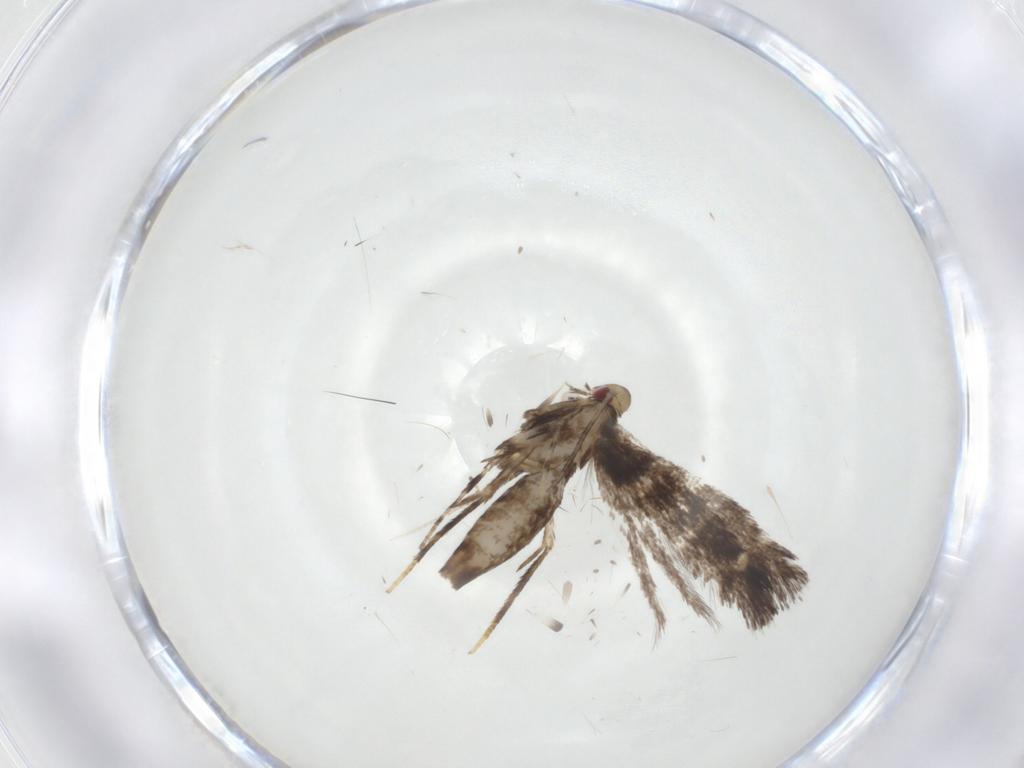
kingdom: Animalia
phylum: Arthropoda
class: Insecta
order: Lepidoptera
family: Gracillariidae
